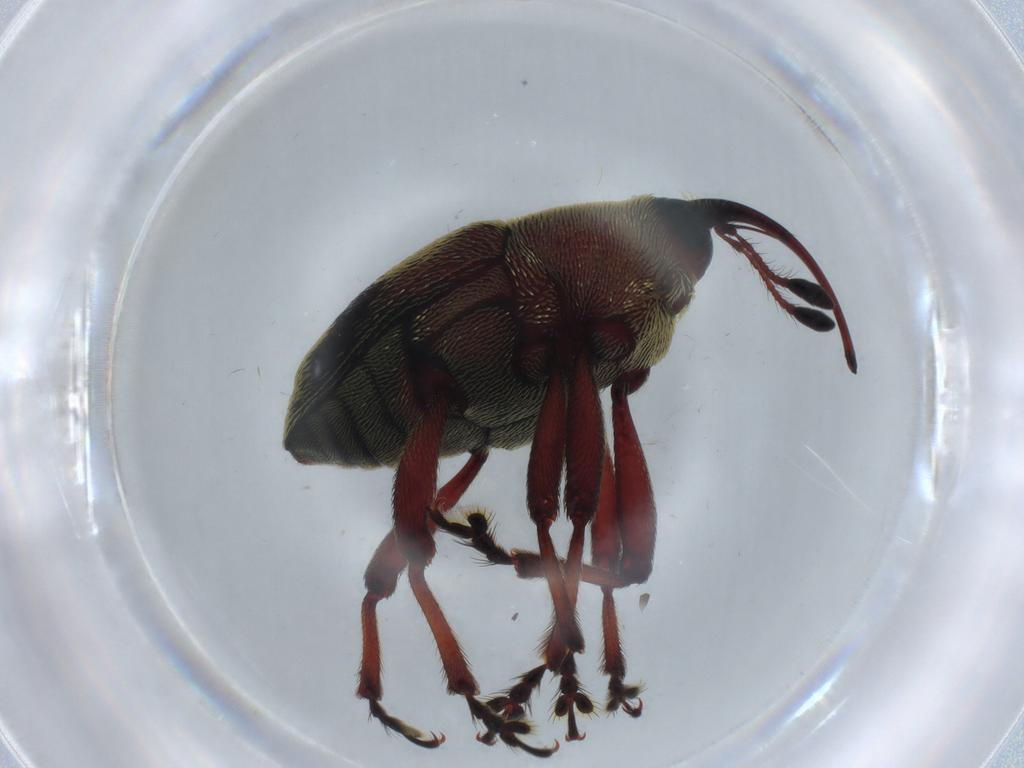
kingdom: Animalia
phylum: Arthropoda
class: Insecta
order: Coleoptera
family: Curculionidae
